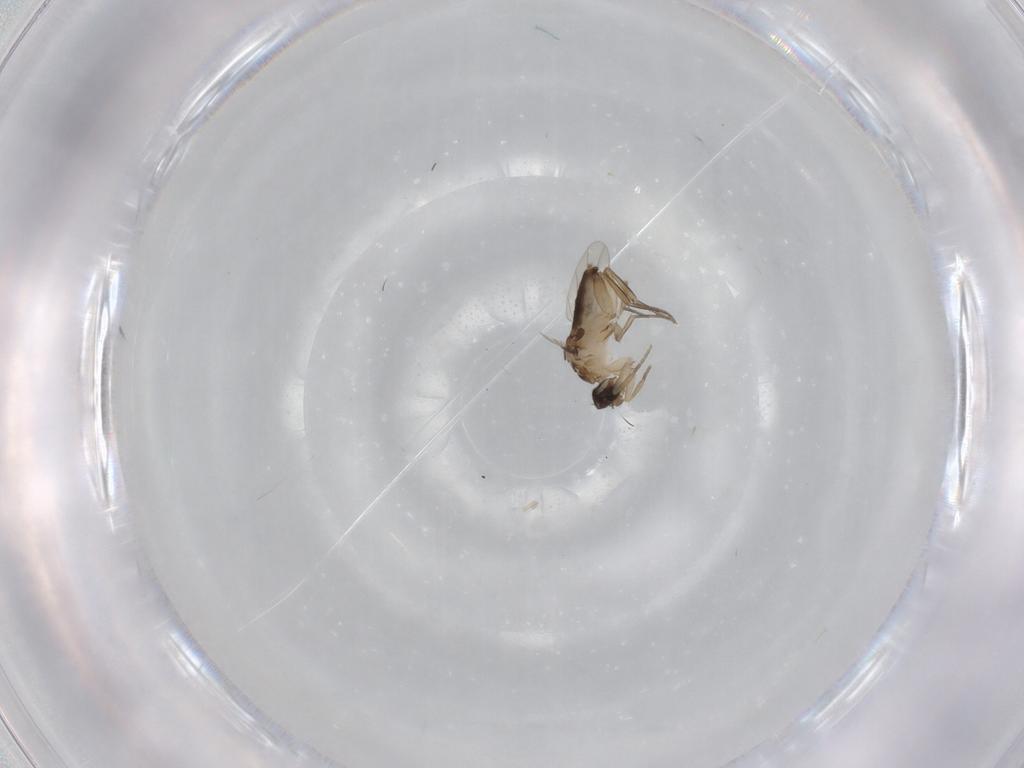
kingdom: Animalia
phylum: Arthropoda
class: Insecta
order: Diptera
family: Phoridae
